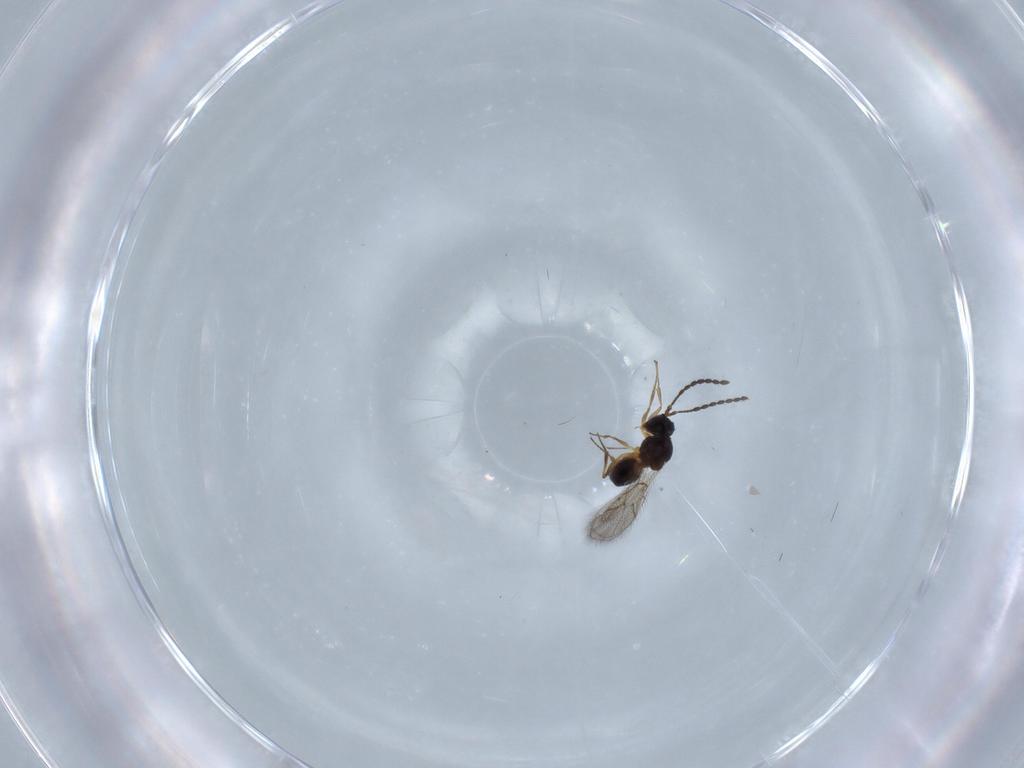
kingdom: Animalia
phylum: Arthropoda
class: Insecta
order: Hymenoptera
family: Figitidae
